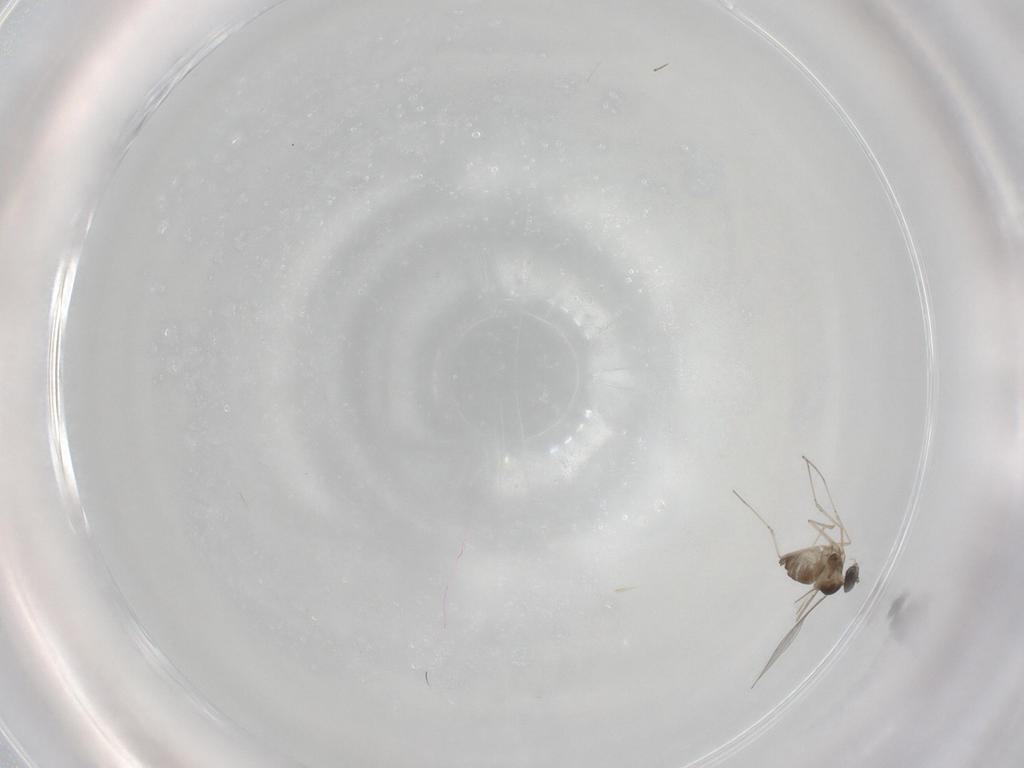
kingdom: Animalia
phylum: Arthropoda
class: Insecta
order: Diptera
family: Cecidomyiidae
